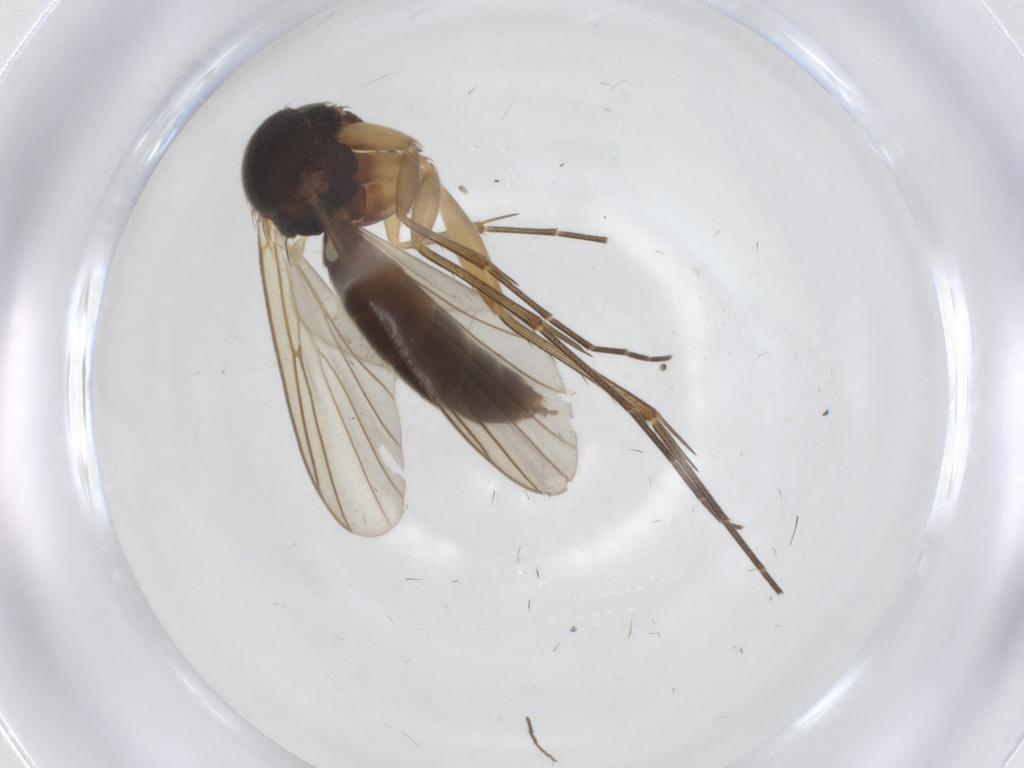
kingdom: Animalia
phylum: Arthropoda
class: Insecta
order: Diptera
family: Mycetophilidae
